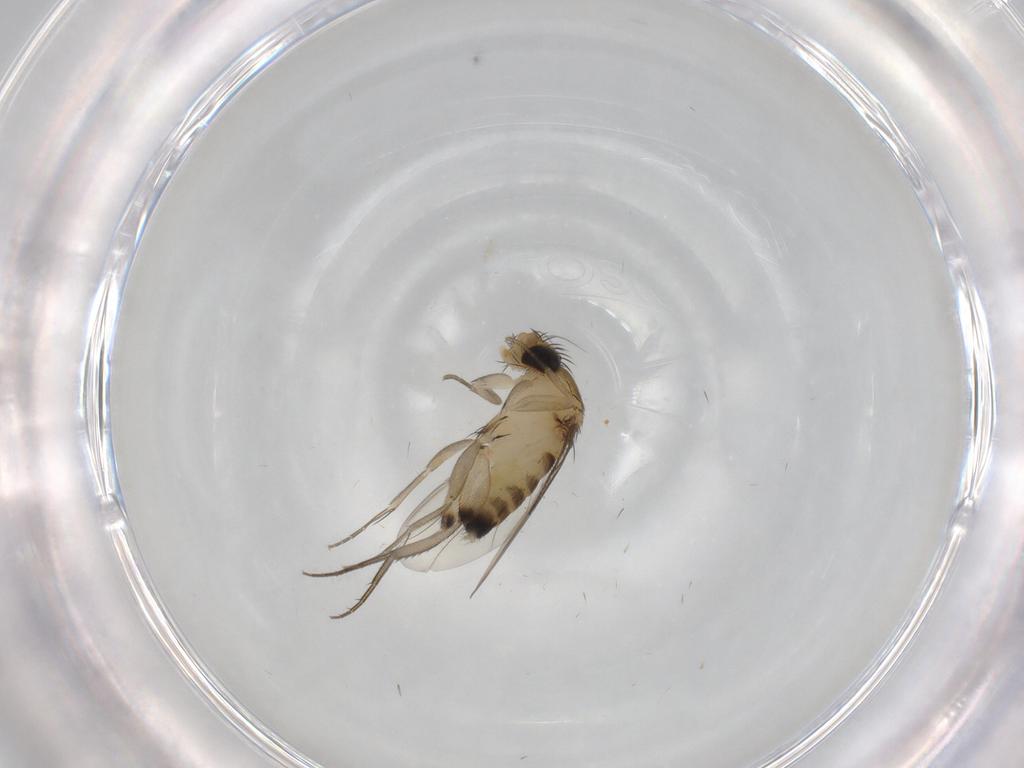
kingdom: Animalia
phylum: Arthropoda
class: Insecta
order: Diptera
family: Phoridae
